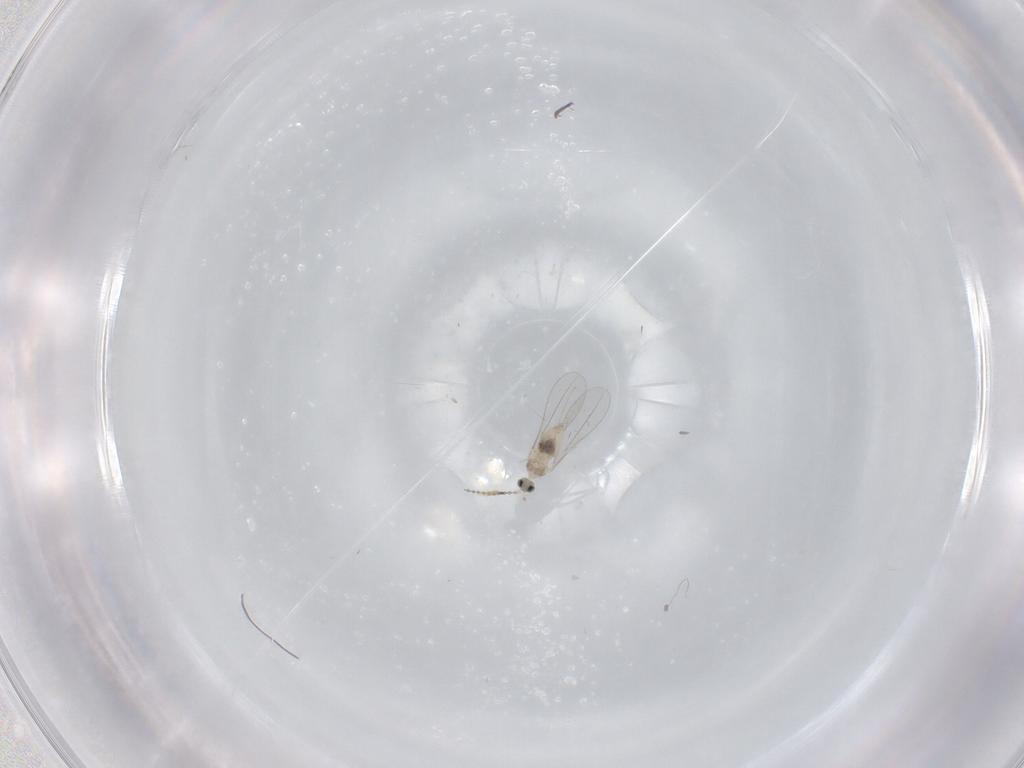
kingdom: Animalia
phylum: Arthropoda
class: Insecta
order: Diptera
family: Cecidomyiidae
